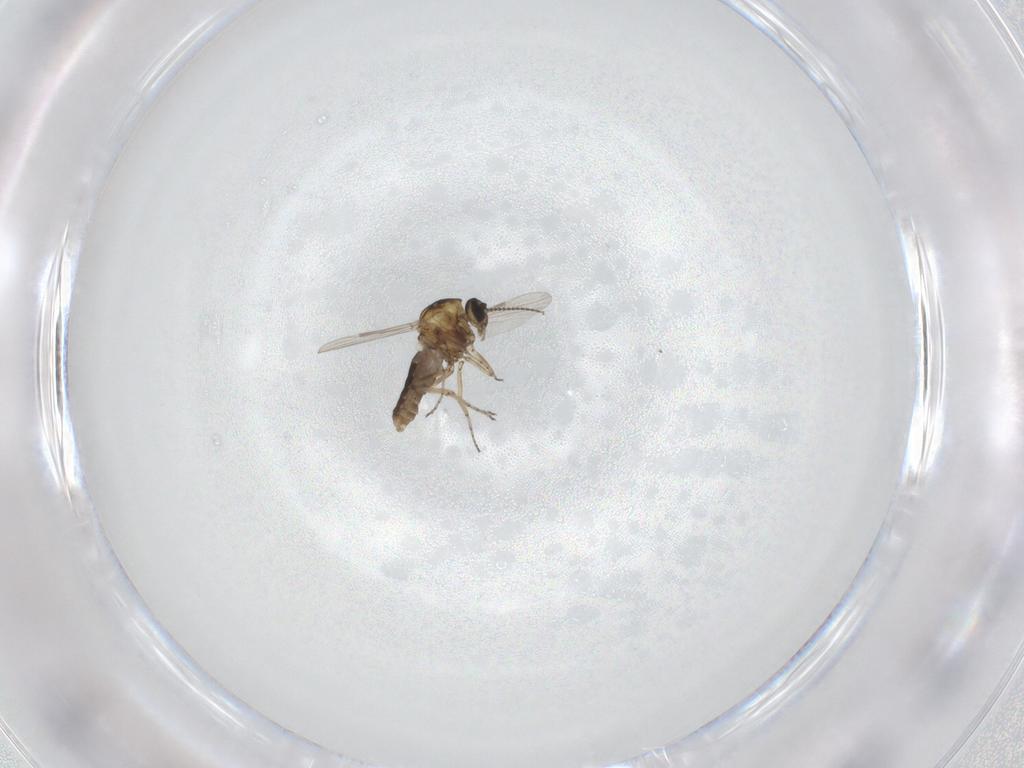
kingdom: Animalia
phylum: Arthropoda
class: Insecta
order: Diptera
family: Ceratopogonidae
